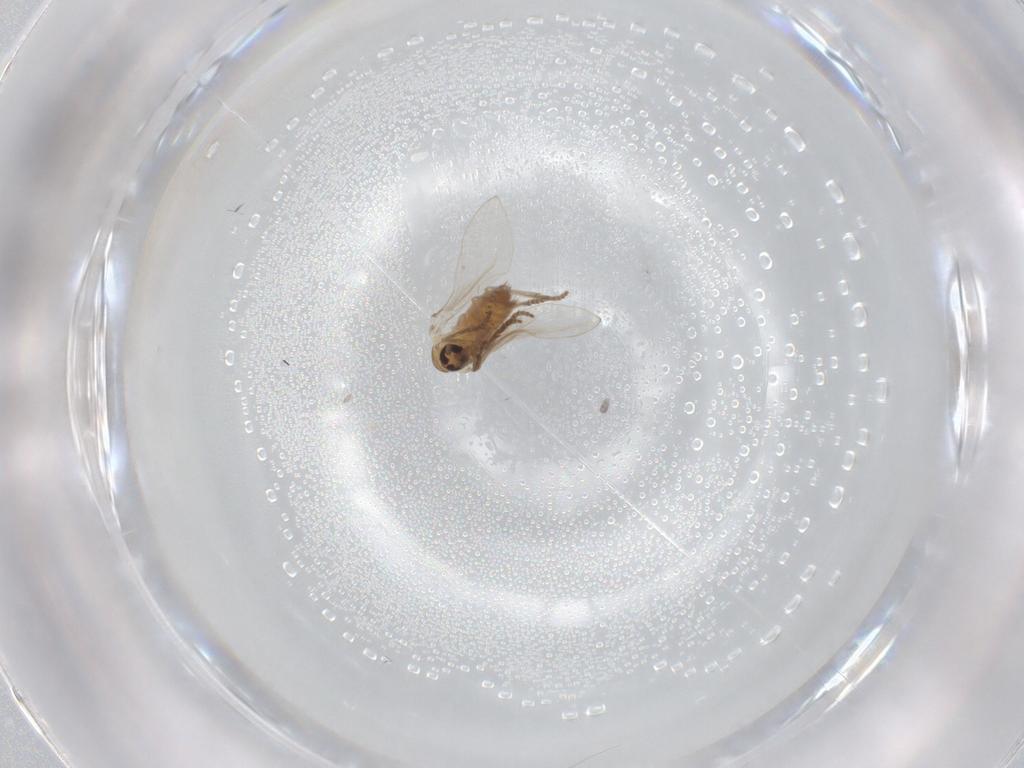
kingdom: Animalia
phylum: Arthropoda
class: Insecta
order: Diptera
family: Psychodidae
